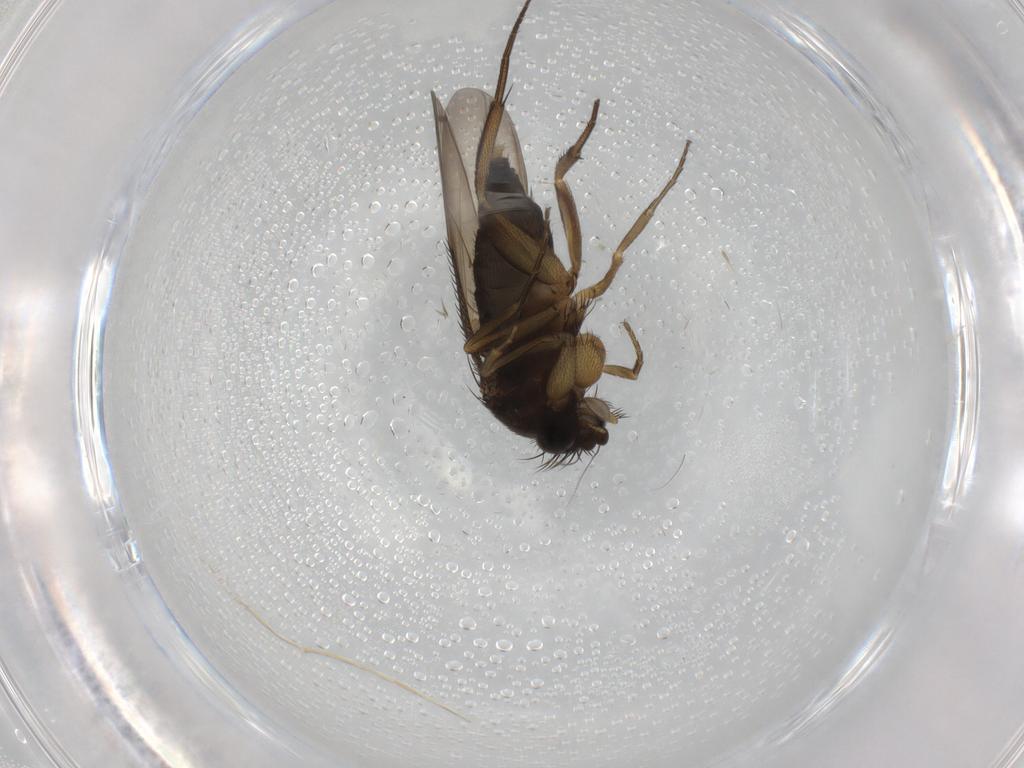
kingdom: Animalia
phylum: Arthropoda
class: Insecta
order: Diptera
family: Phoridae
